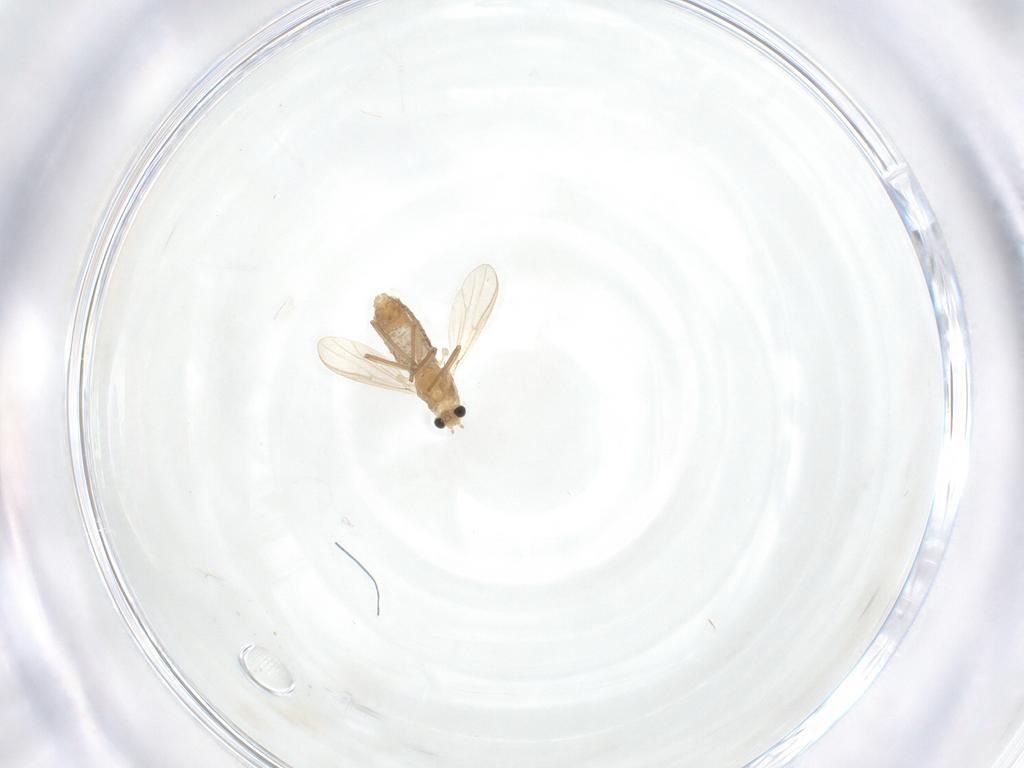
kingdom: Animalia
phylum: Arthropoda
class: Insecta
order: Diptera
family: Chironomidae
